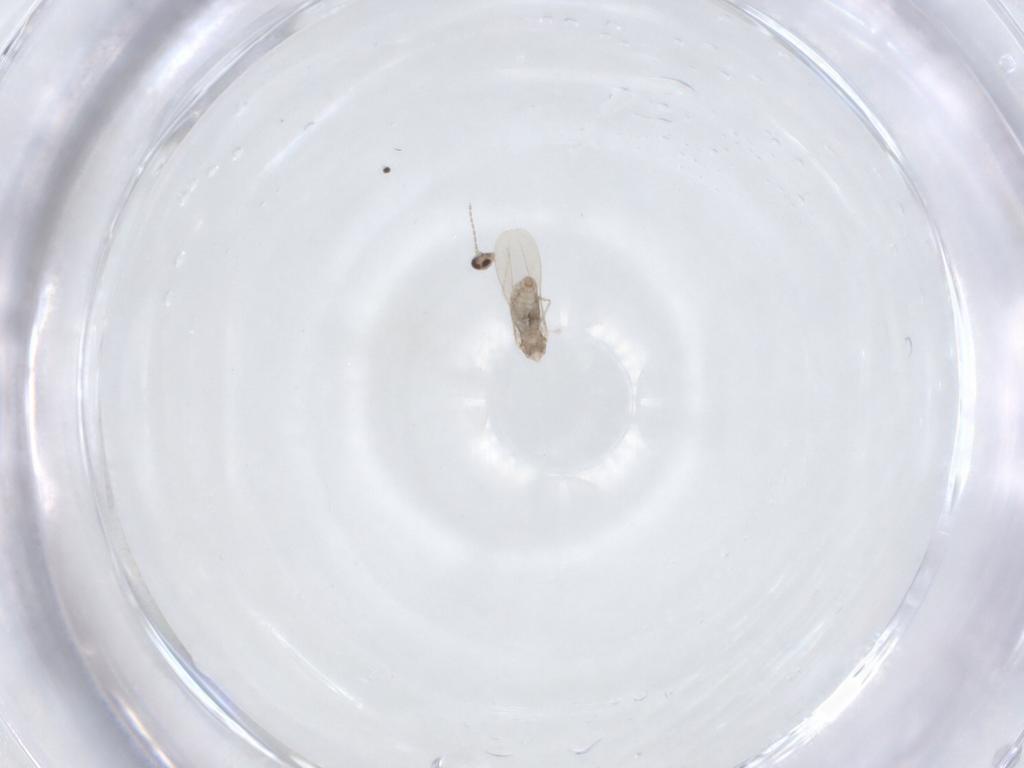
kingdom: Animalia
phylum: Arthropoda
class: Insecta
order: Diptera
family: Cecidomyiidae
